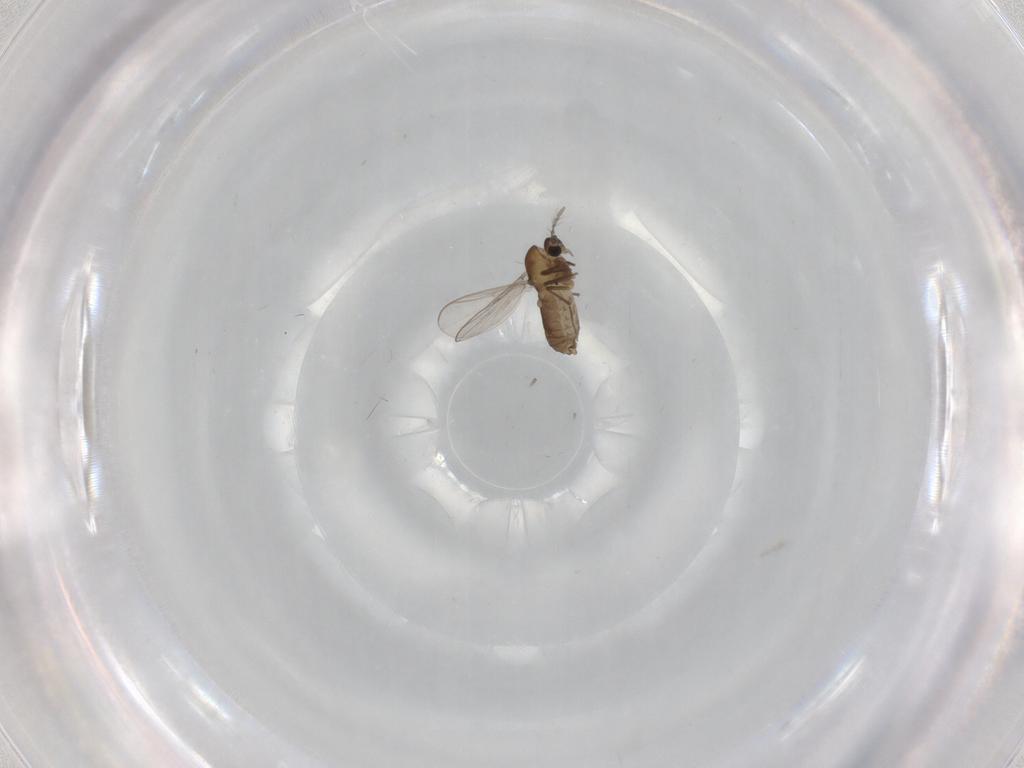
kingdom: Animalia
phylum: Arthropoda
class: Insecta
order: Diptera
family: Chironomidae
